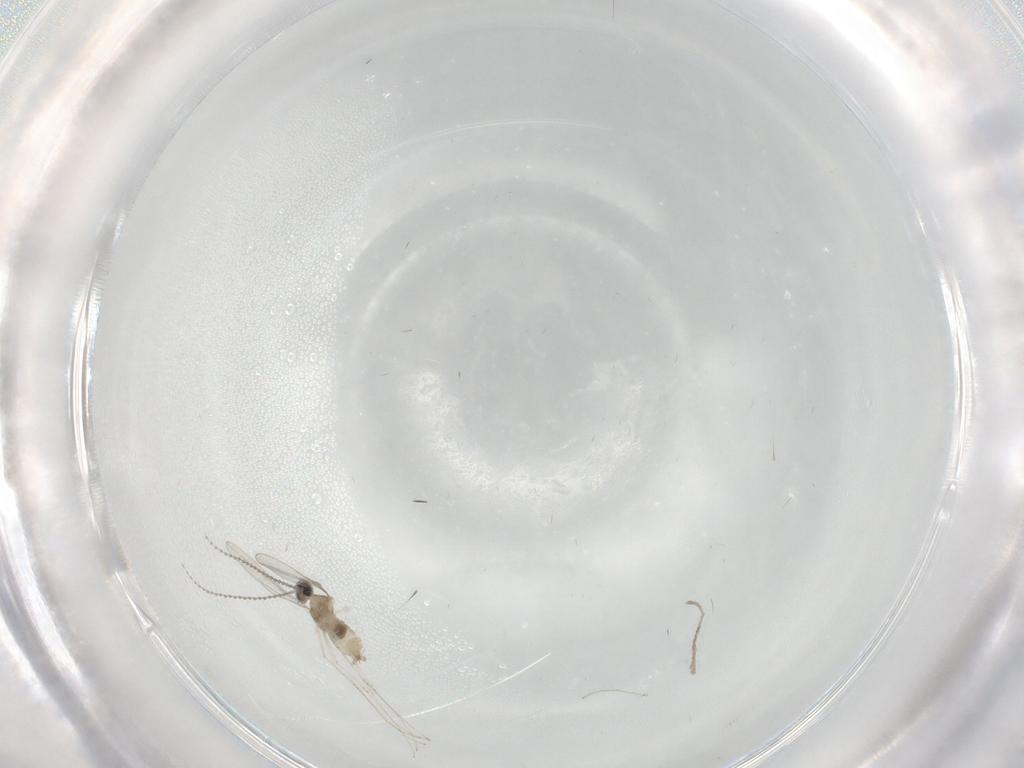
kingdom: Animalia
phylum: Arthropoda
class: Insecta
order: Diptera
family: Cecidomyiidae
